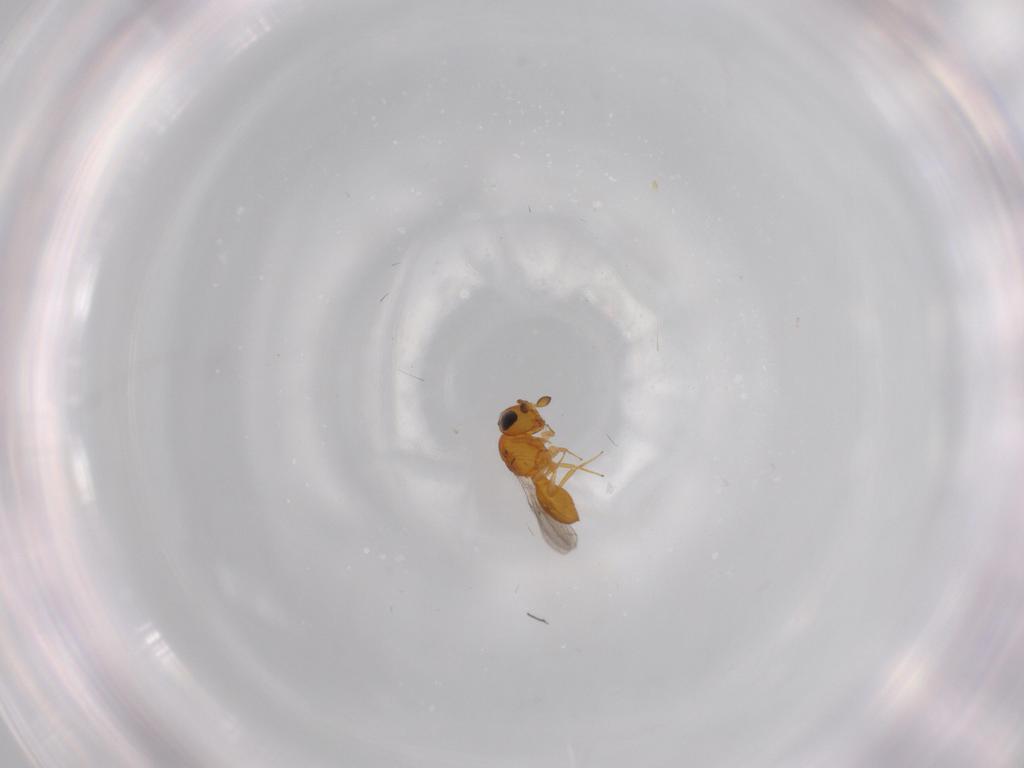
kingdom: Animalia
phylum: Arthropoda
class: Insecta
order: Hymenoptera
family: Scelionidae
